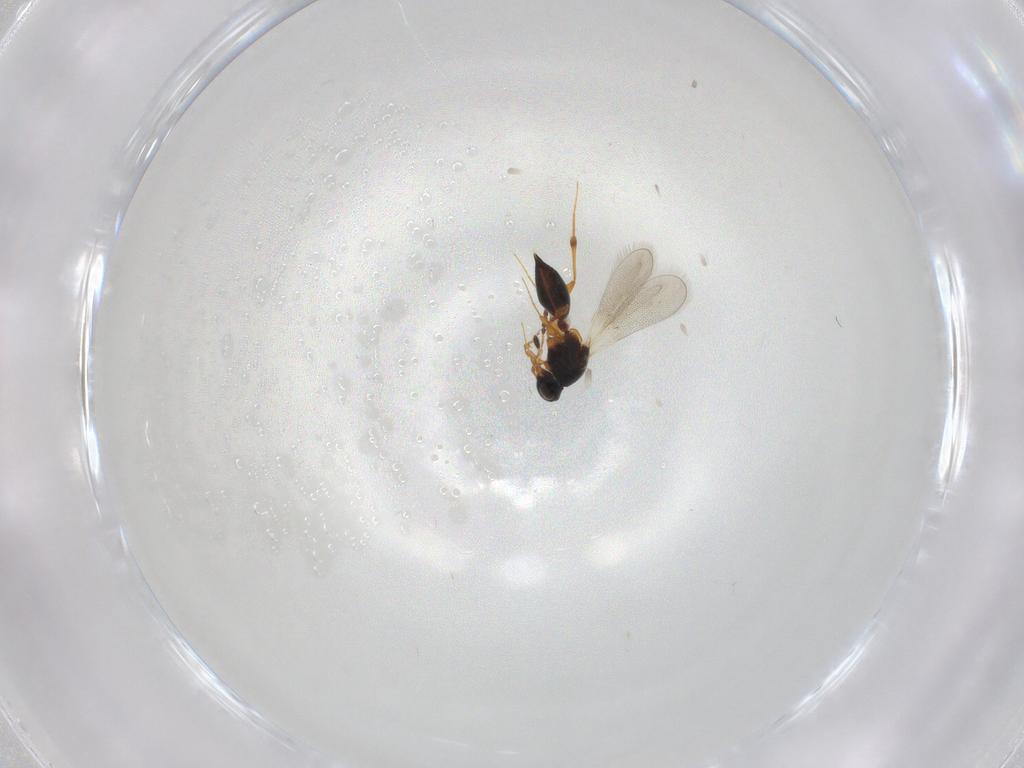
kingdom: Animalia
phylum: Arthropoda
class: Insecta
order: Hymenoptera
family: Platygastridae
